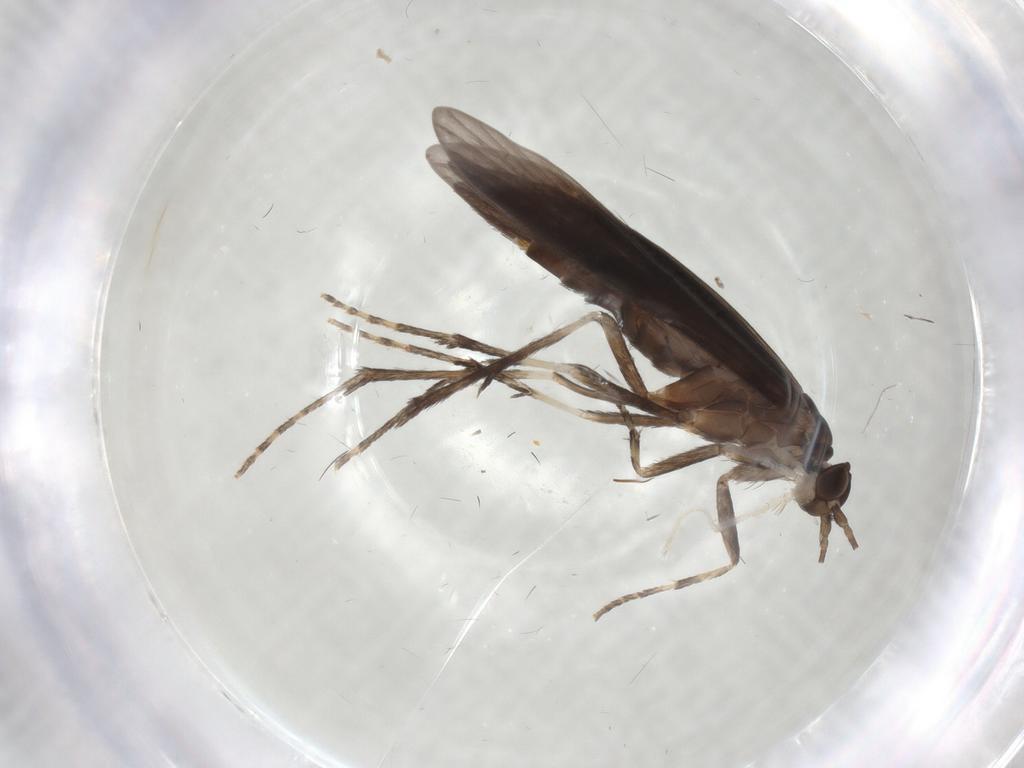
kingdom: Animalia
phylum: Arthropoda
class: Insecta
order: Trichoptera
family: Xiphocentronidae
